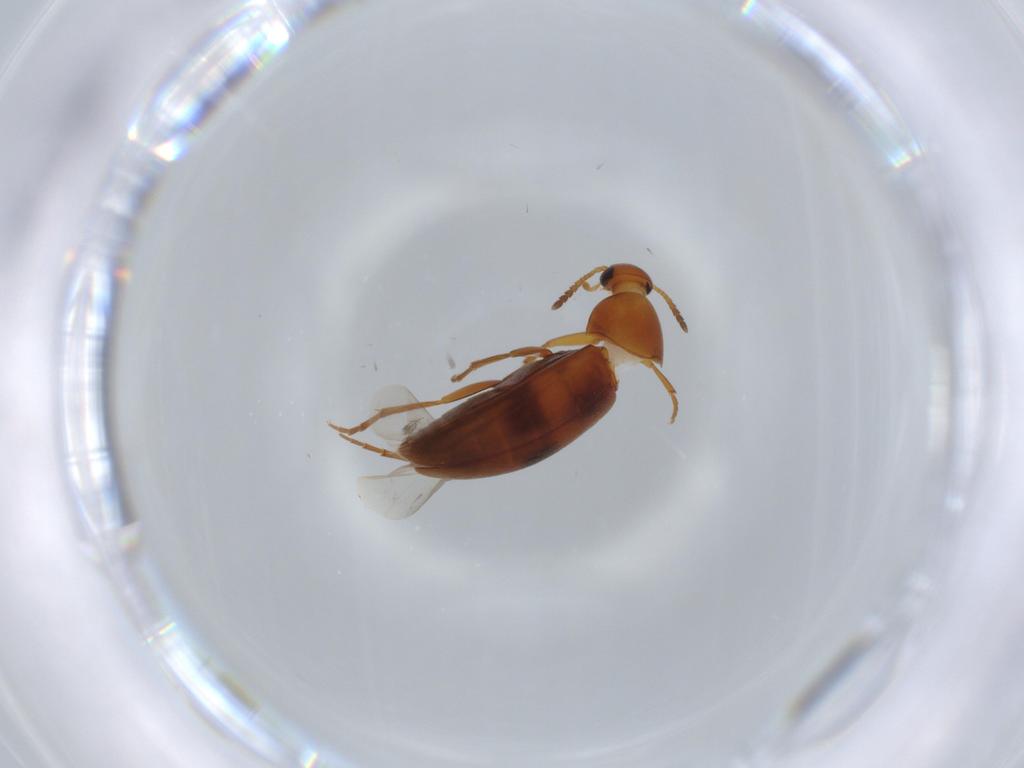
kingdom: Animalia
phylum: Arthropoda
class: Insecta
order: Coleoptera
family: Scraptiidae
